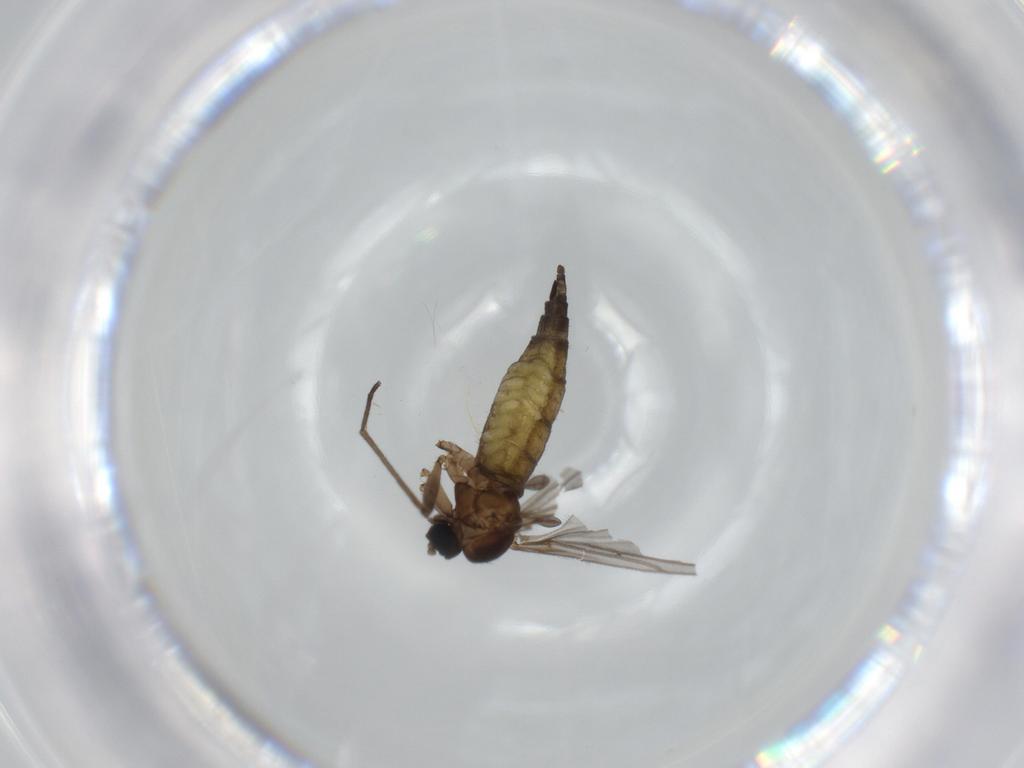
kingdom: Animalia
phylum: Arthropoda
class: Insecta
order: Diptera
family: Sciaridae
